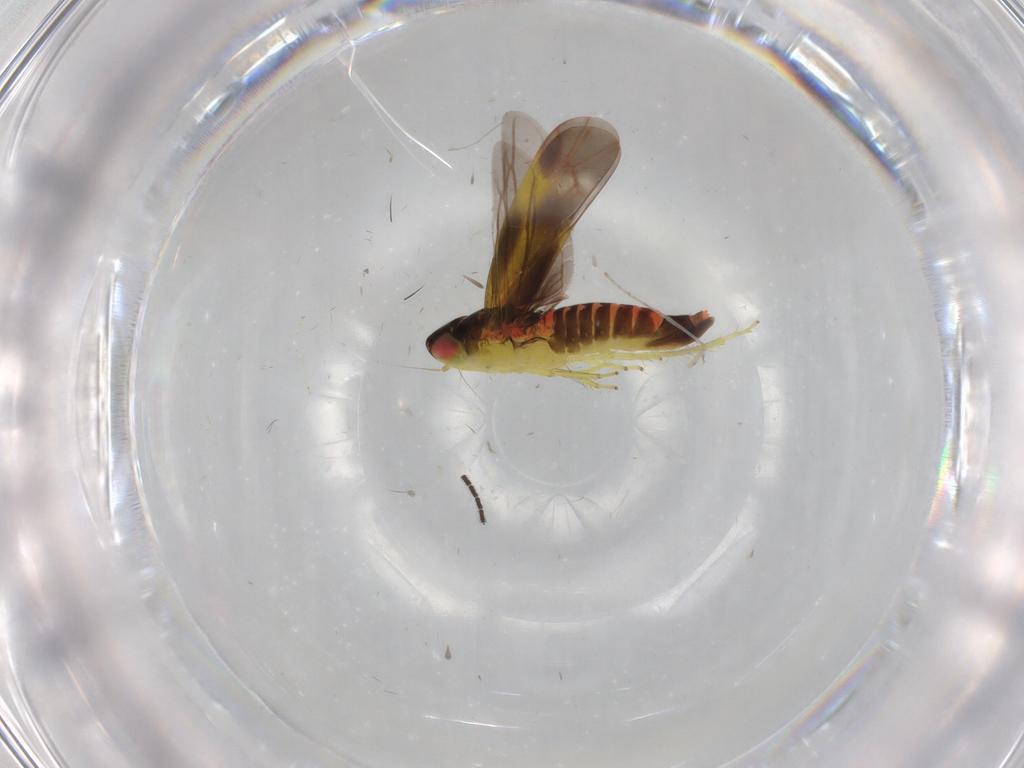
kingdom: Animalia
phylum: Arthropoda
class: Insecta
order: Hemiptera
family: Cicadellidae
